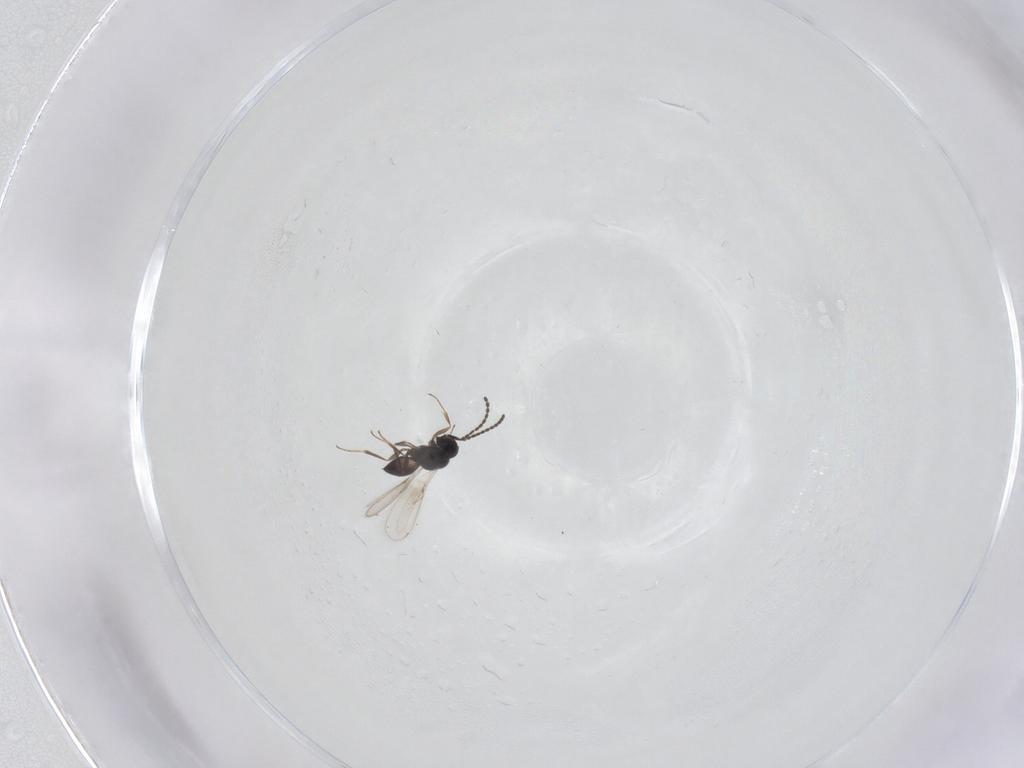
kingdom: Animalia
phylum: Arthropoda
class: Insecta
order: Hymenoptera
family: Scelionidae
